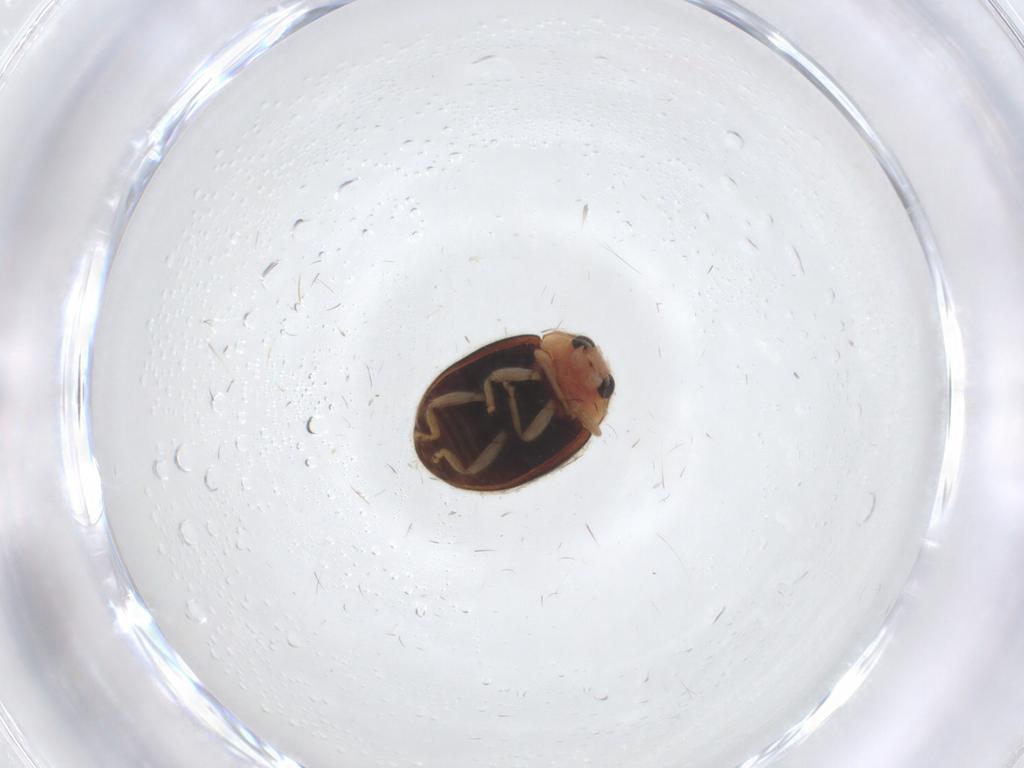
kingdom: Animalia
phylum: Arthropoda
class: Insecta
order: Coleoptera
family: Coccinellidae
